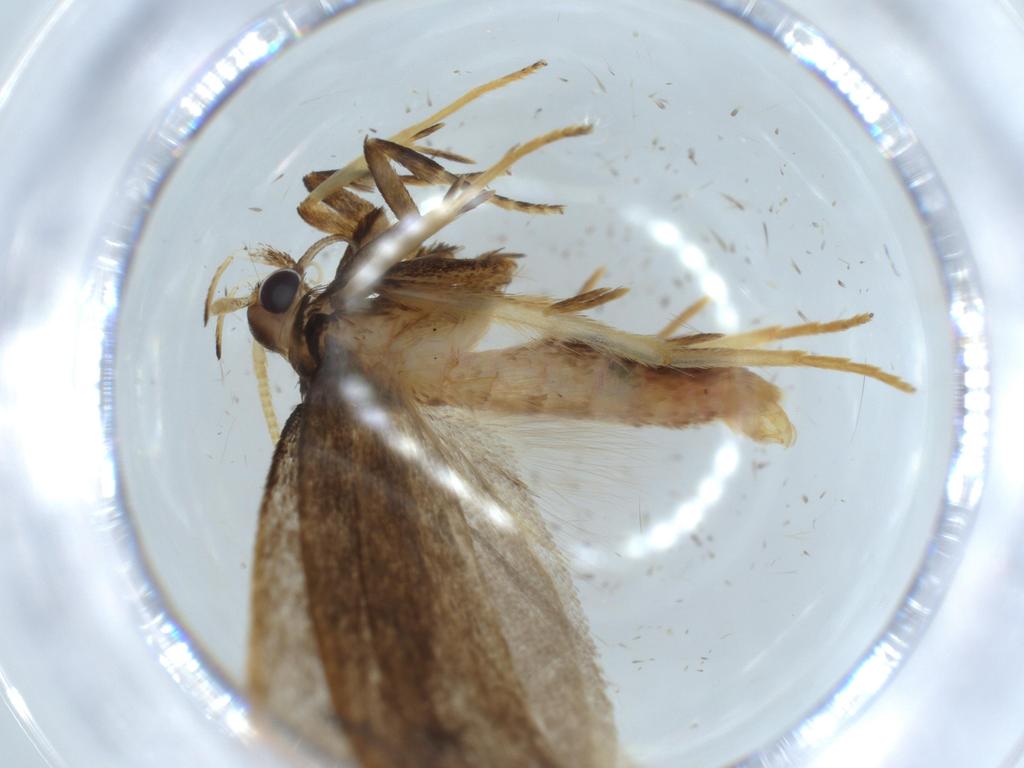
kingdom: Animalia
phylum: Arthropoda
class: Insecta
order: Lepidoptera
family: Lecithoceridae
